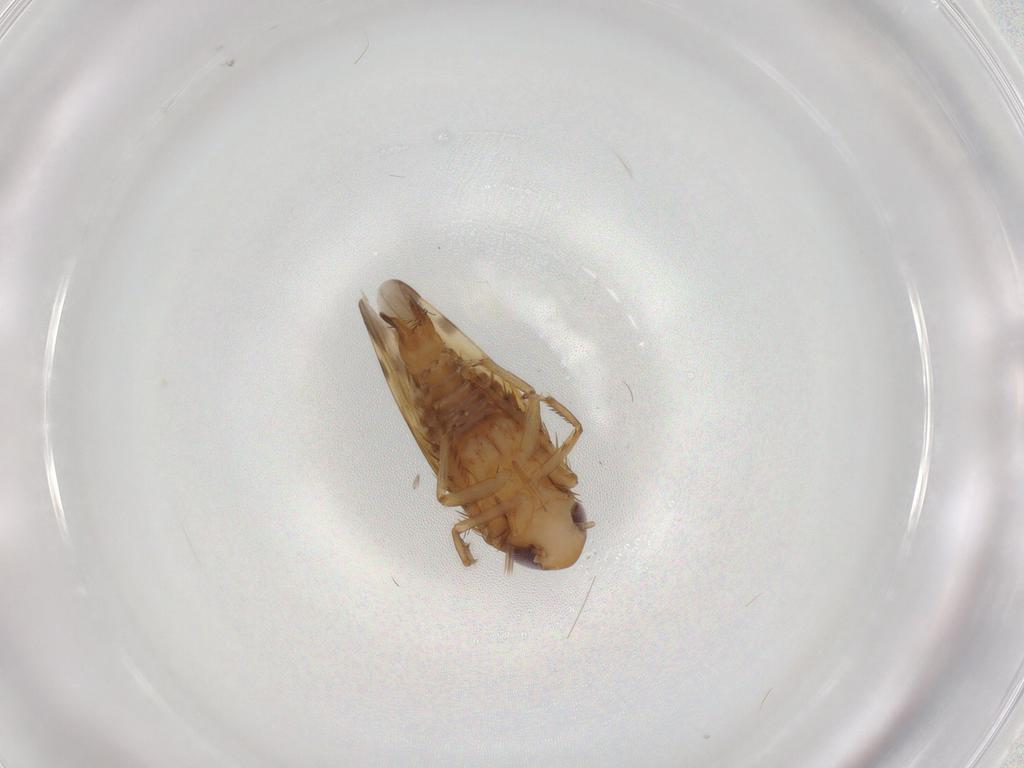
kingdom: Animalia
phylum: Arthropoda
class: Insecta
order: Hemiptera
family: Cicadellidae
